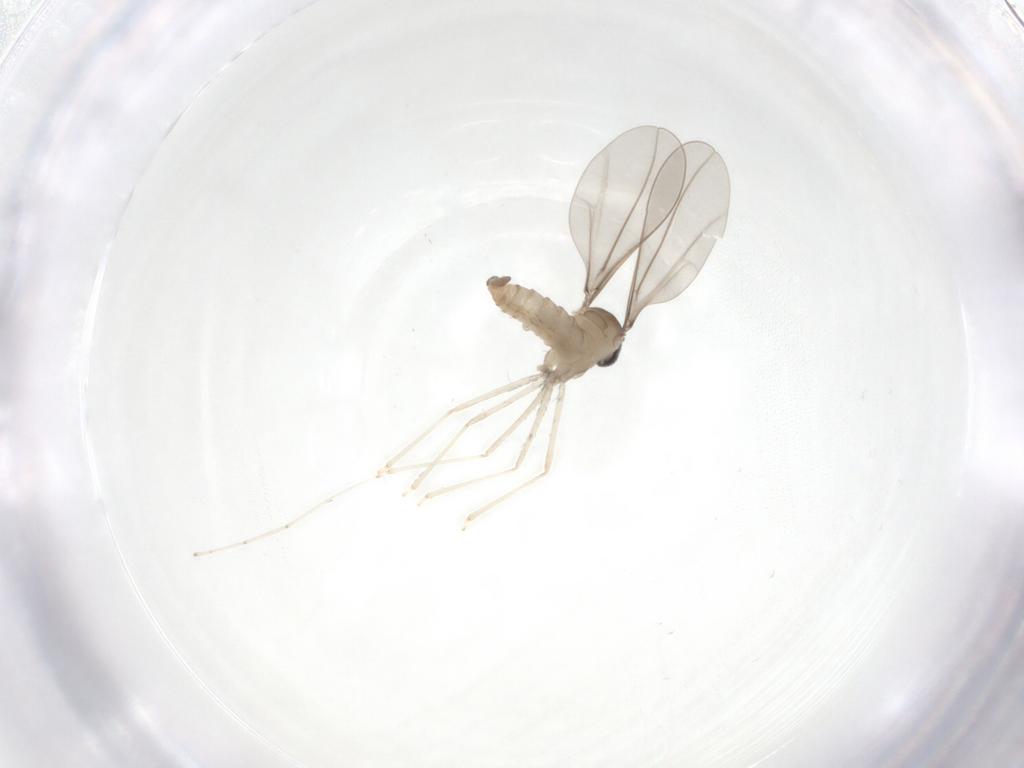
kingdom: Animalia
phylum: Arthropoda
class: Insecta
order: Diptera
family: Cecidomyiidae
